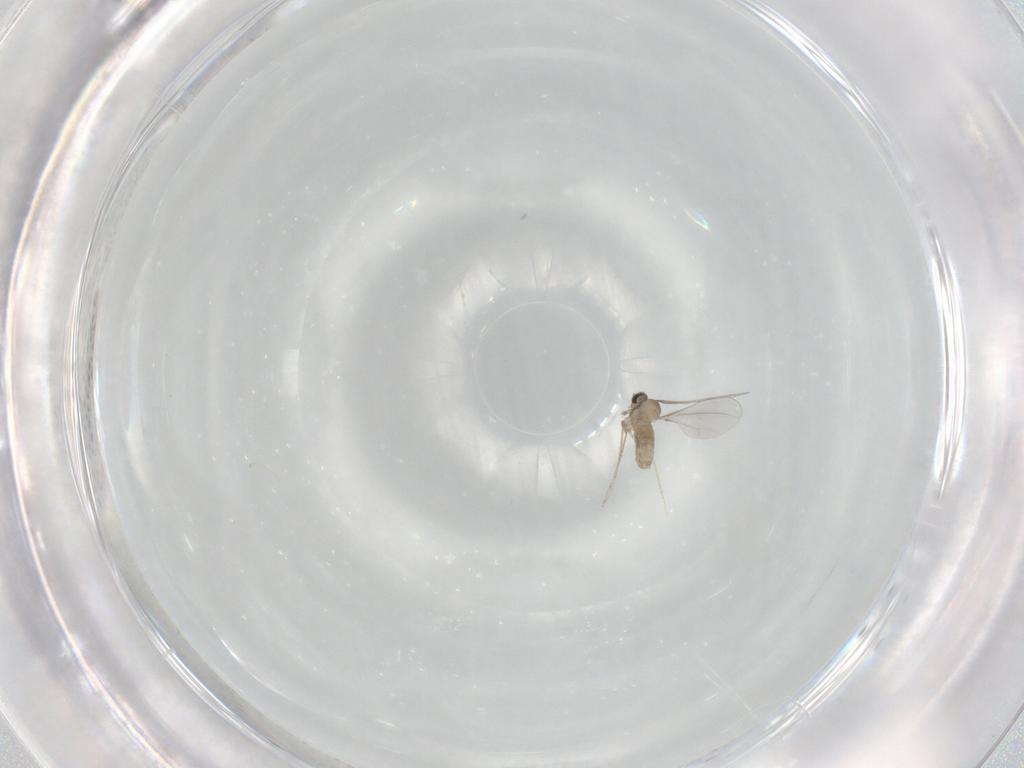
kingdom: Animalia
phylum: Arthropoda
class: Insecta
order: Diptera
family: Cecidomyiidae
